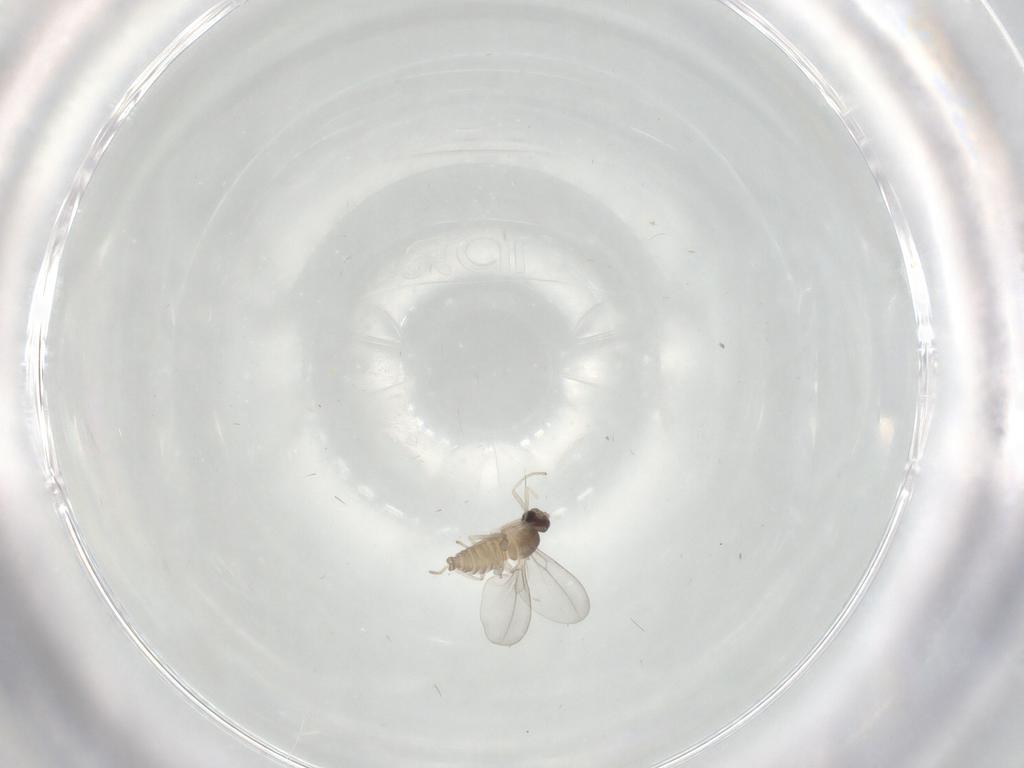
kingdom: Animalia
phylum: Arthropoda
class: Insecta
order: Diptera
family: Cecidomyiidae
